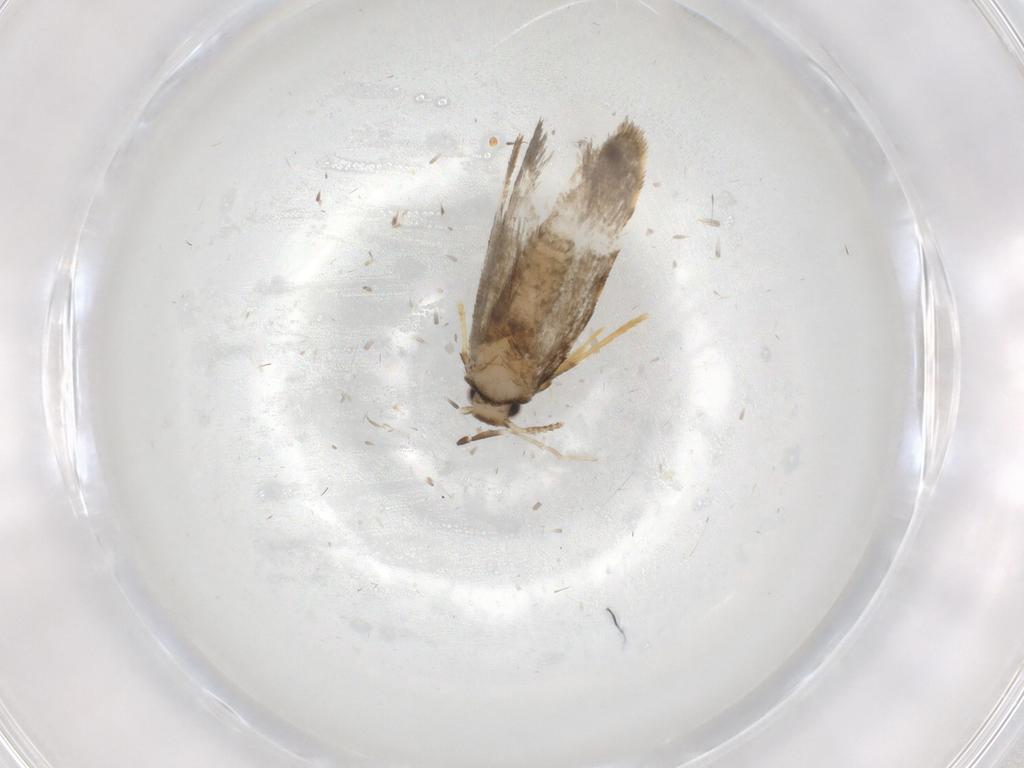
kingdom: Animalia
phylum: Arthropoda
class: Insecta
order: Lepidoptera
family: Psychidae
